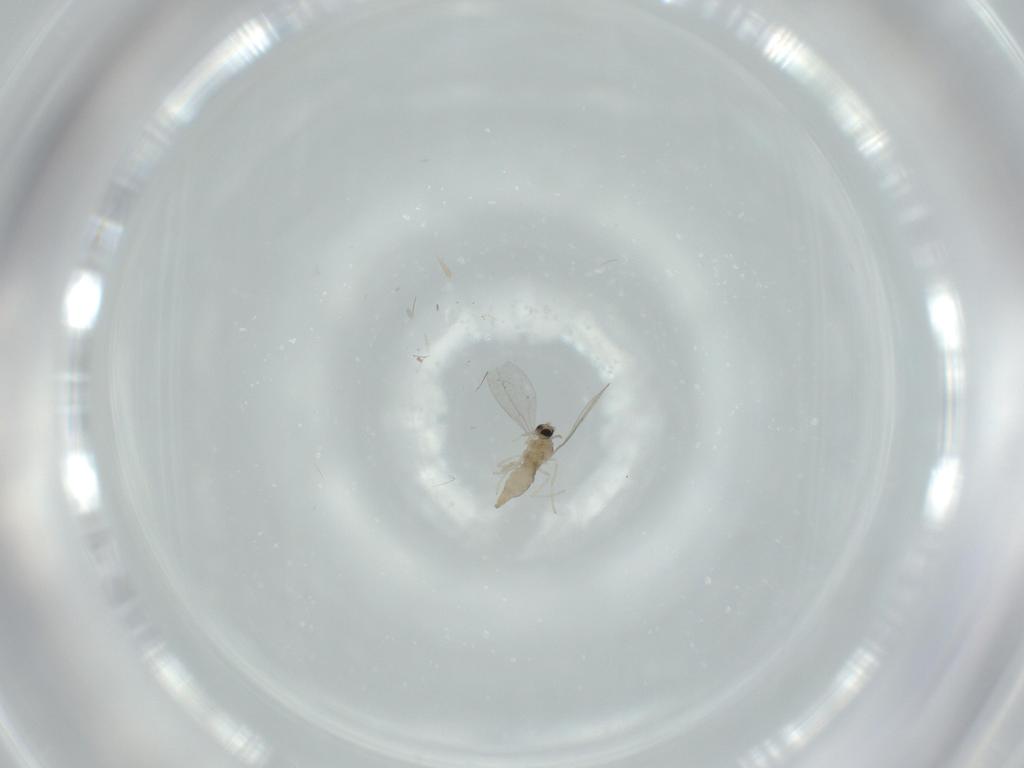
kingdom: Animalia
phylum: Arthropoda
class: Insecta
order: Diptera
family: Cecidomyiidae
